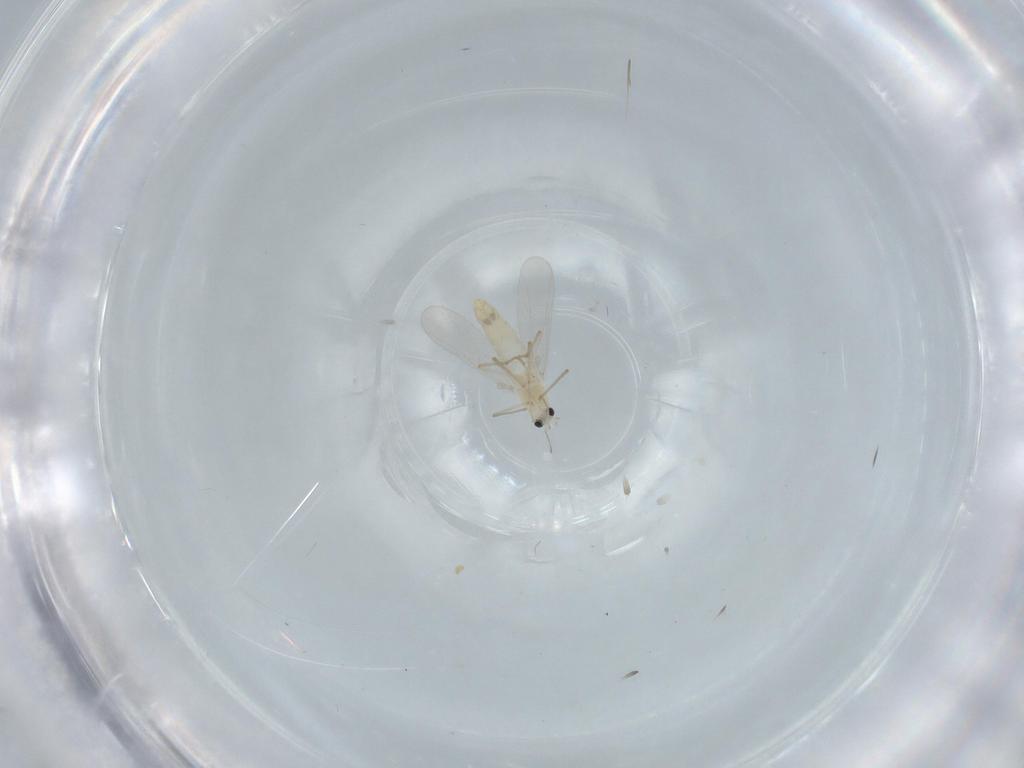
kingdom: Animalia
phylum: Arthropoda
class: Insecta
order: Diptera
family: Chironomidae
